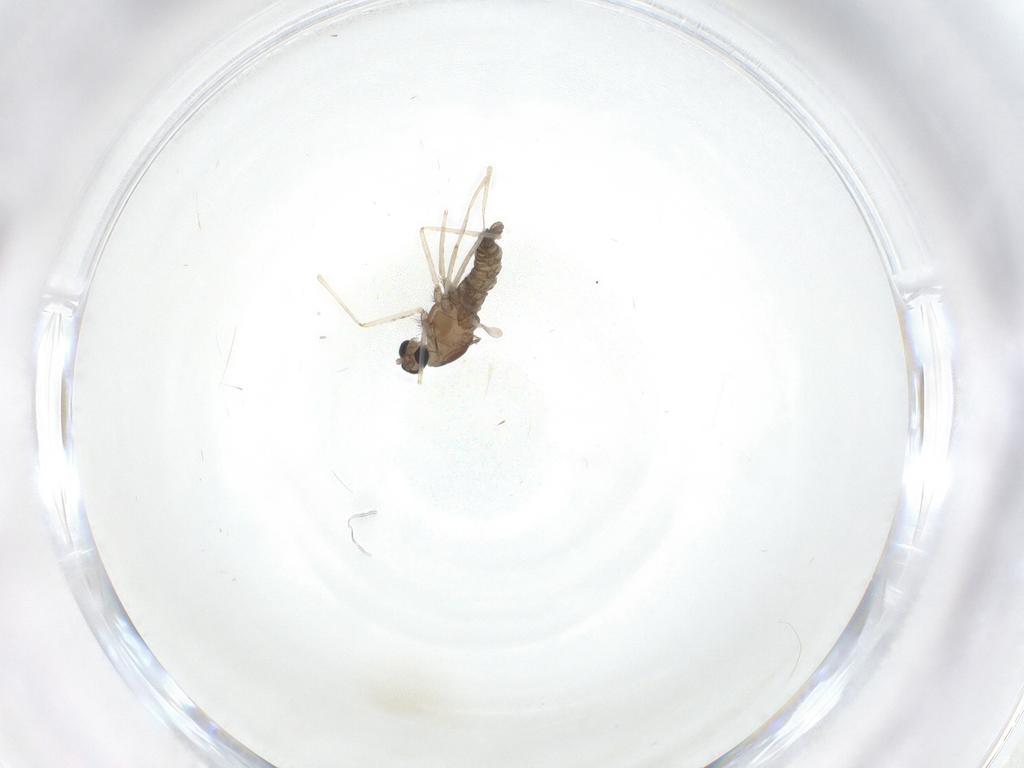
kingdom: Animalia
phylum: Arthropoda
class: Insecta
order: Diptera
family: Cecidomyiidae
